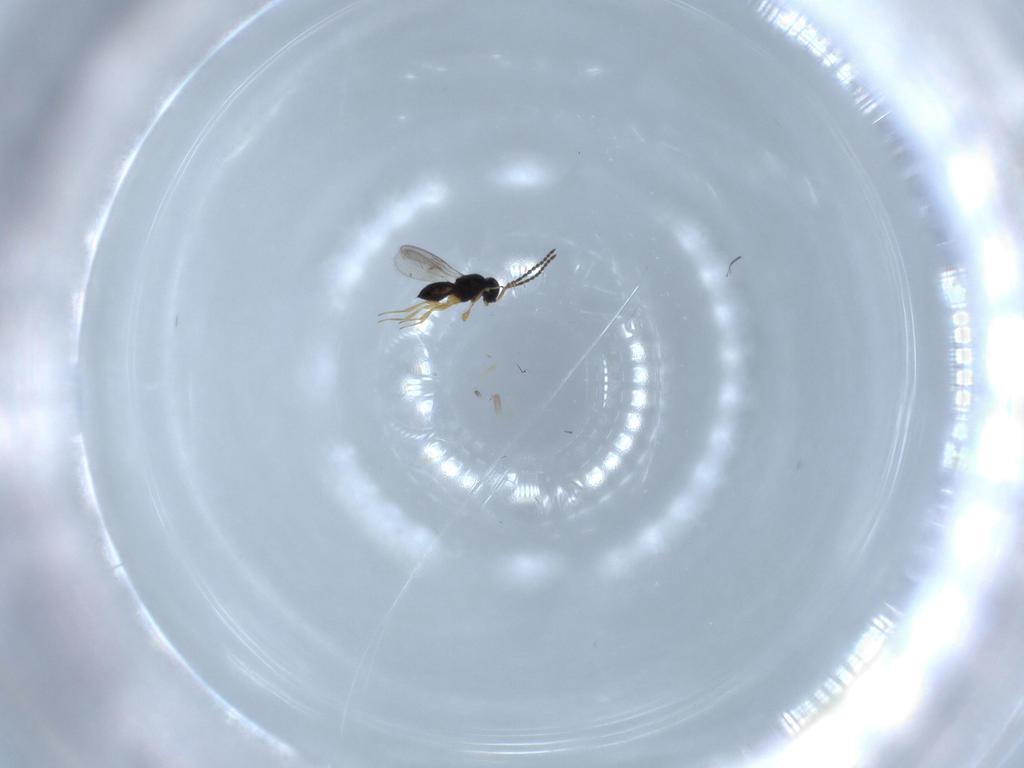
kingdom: Animalia
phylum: Arthropoda
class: Insecta
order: Hymenoptera
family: Scelionidae
